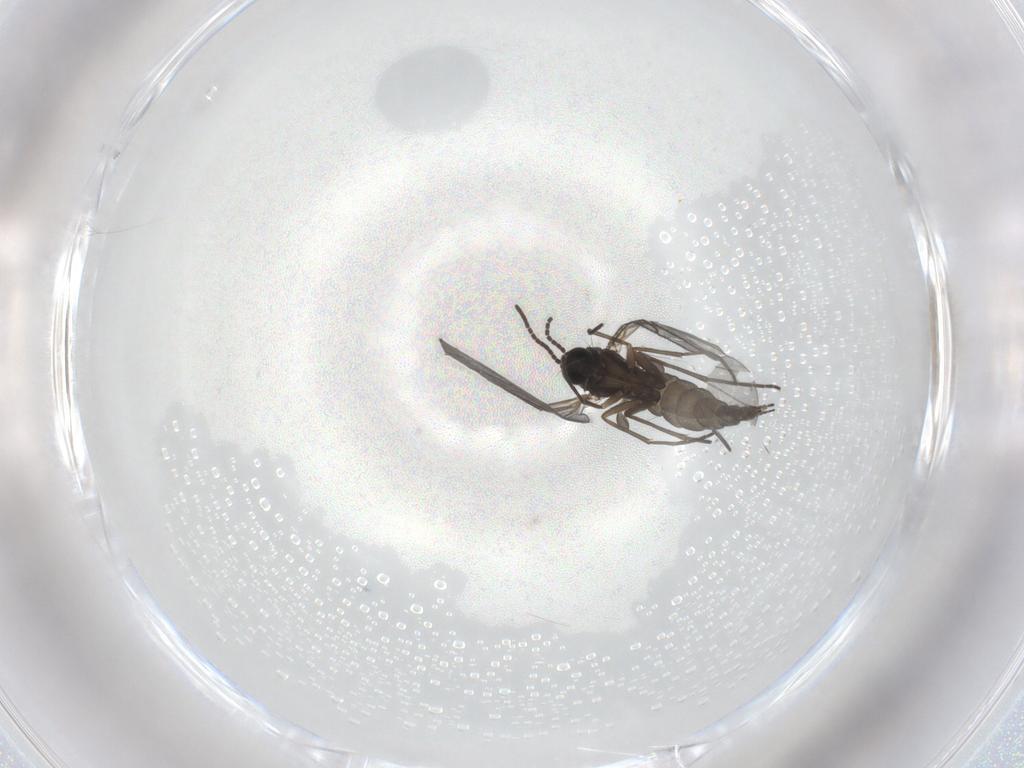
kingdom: Animalia
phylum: Arthropoda
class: Insecta
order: Diptera
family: Sciaridae
